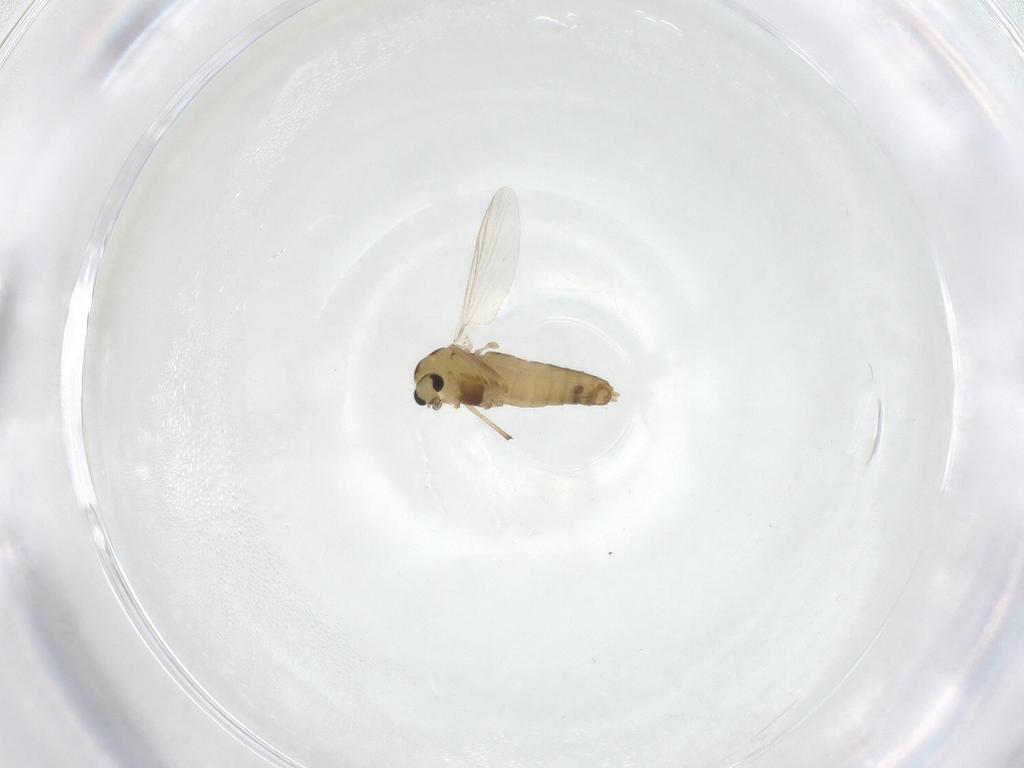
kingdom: Animalia
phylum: Arthropoda
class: Insecta
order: Diptera
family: Chironomidae
